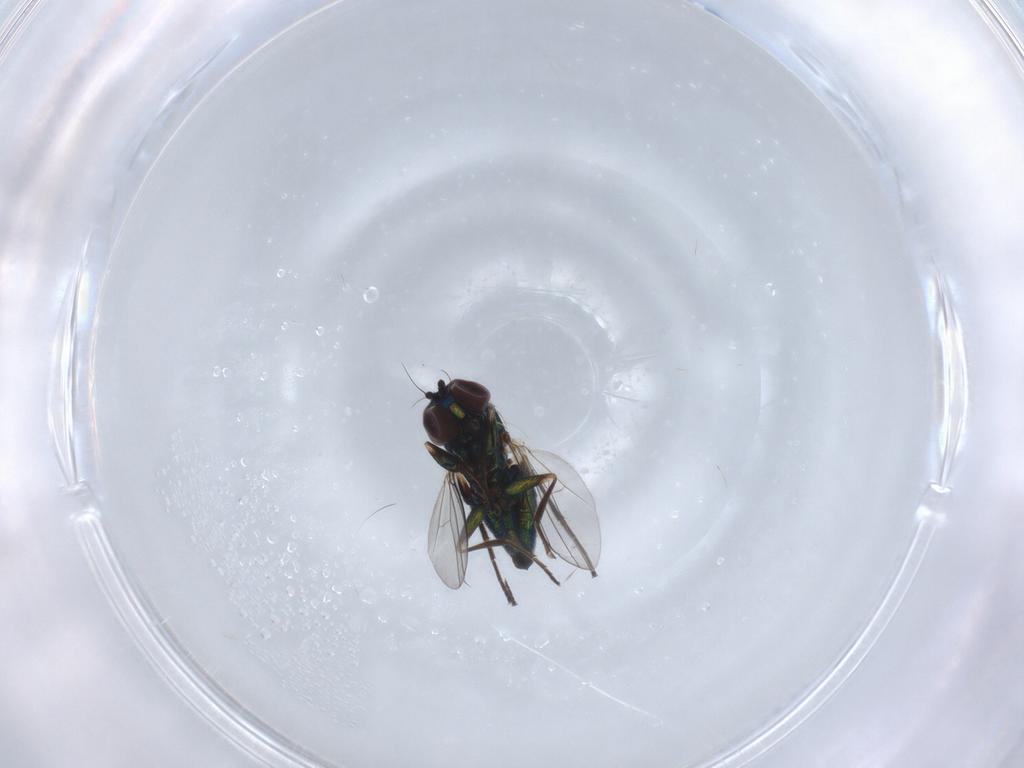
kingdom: Animalia
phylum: Arthropoda
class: Insecta
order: Diptera
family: Dolichopodidae
